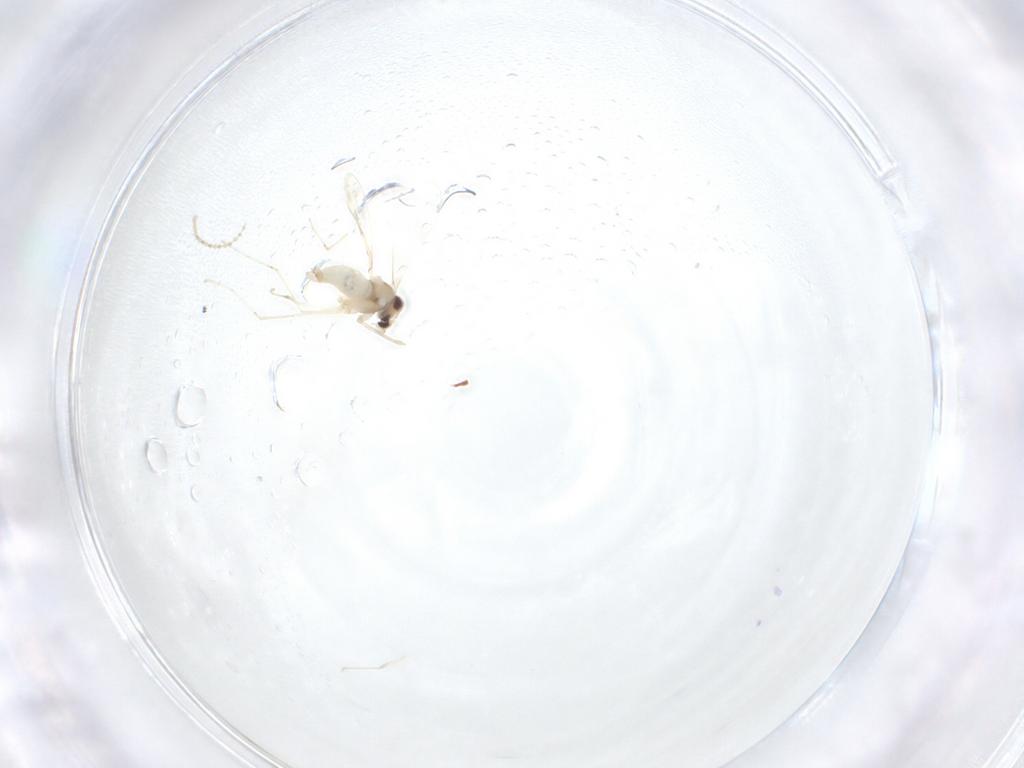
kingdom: Animalia
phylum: Arthropoda
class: Insecta
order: Diptera
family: Cecidomyiidae
